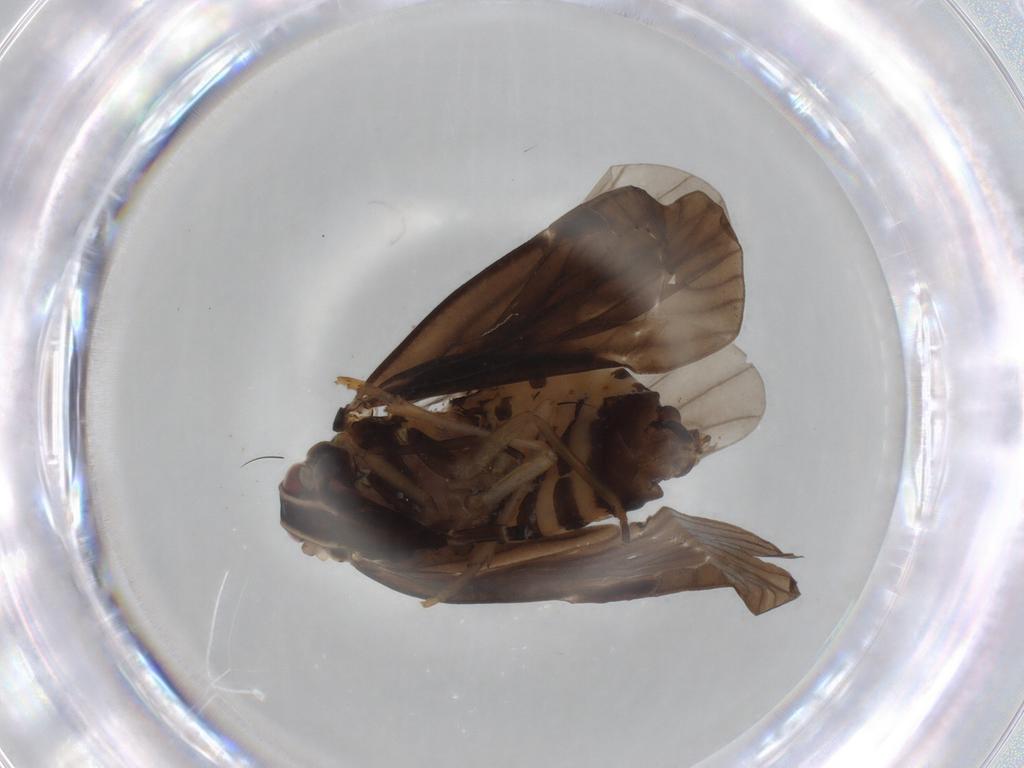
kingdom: Animalia
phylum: Arthropoda
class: Insecta
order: Hemiptera
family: Derbidae
